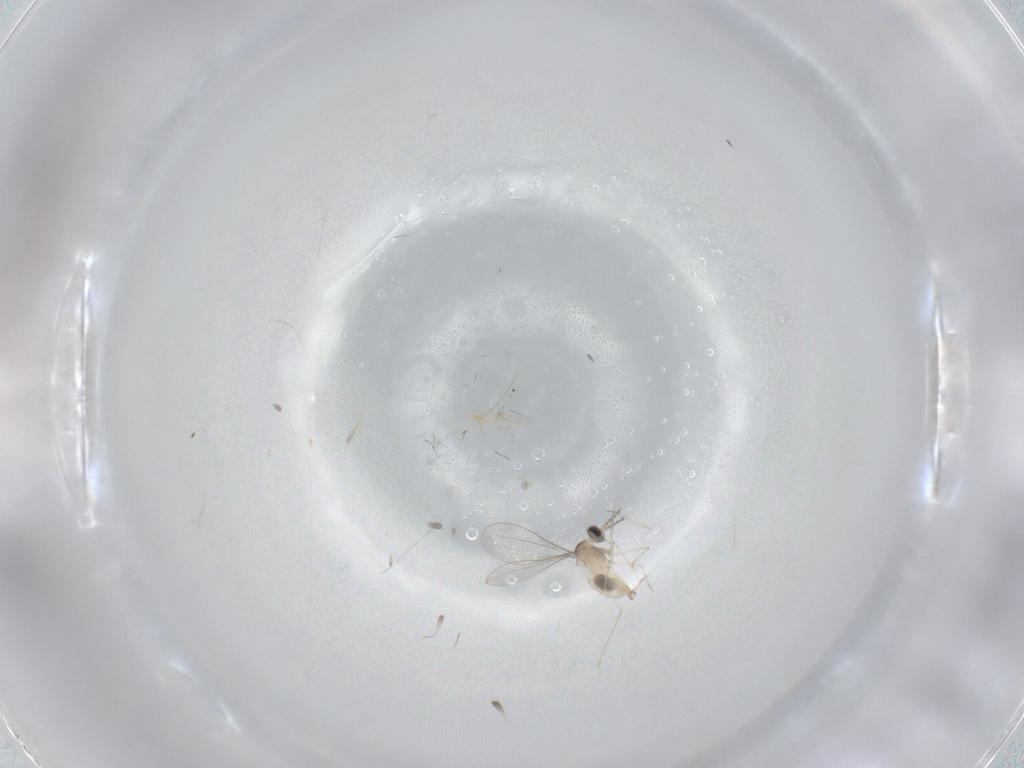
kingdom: Animalia
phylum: Arthropoda
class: Insecta
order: Diptera
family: Cecidomyiidae
